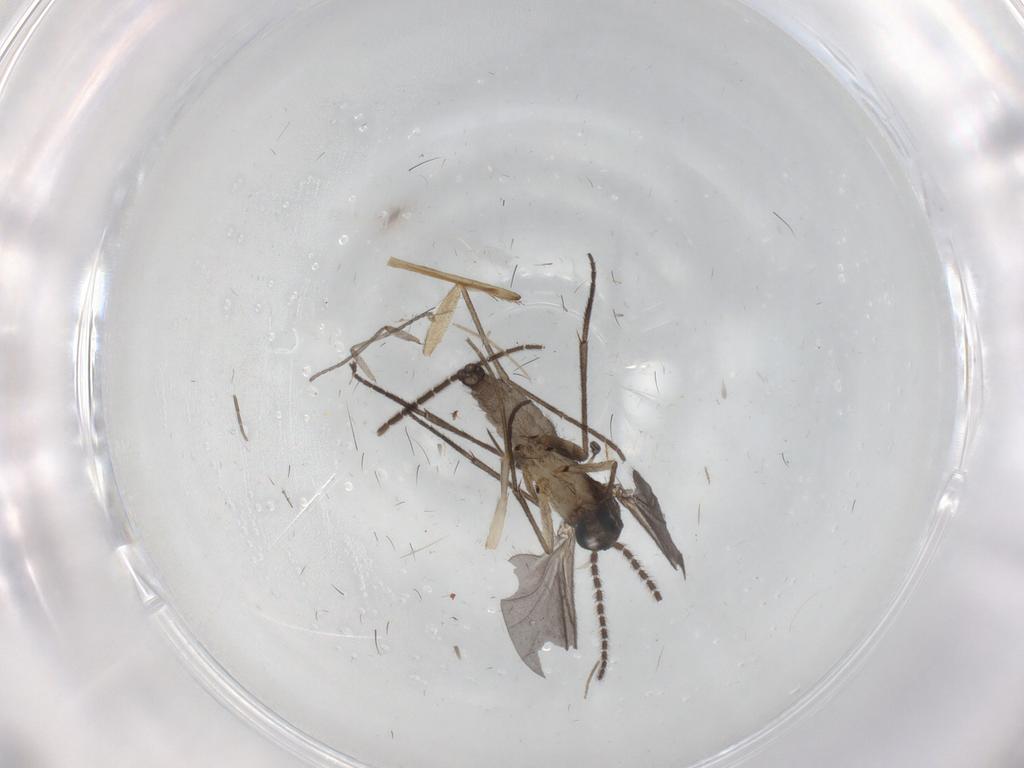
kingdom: Animalia
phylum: Arthropoda
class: Insecta
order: Diptera
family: Sciaridae
